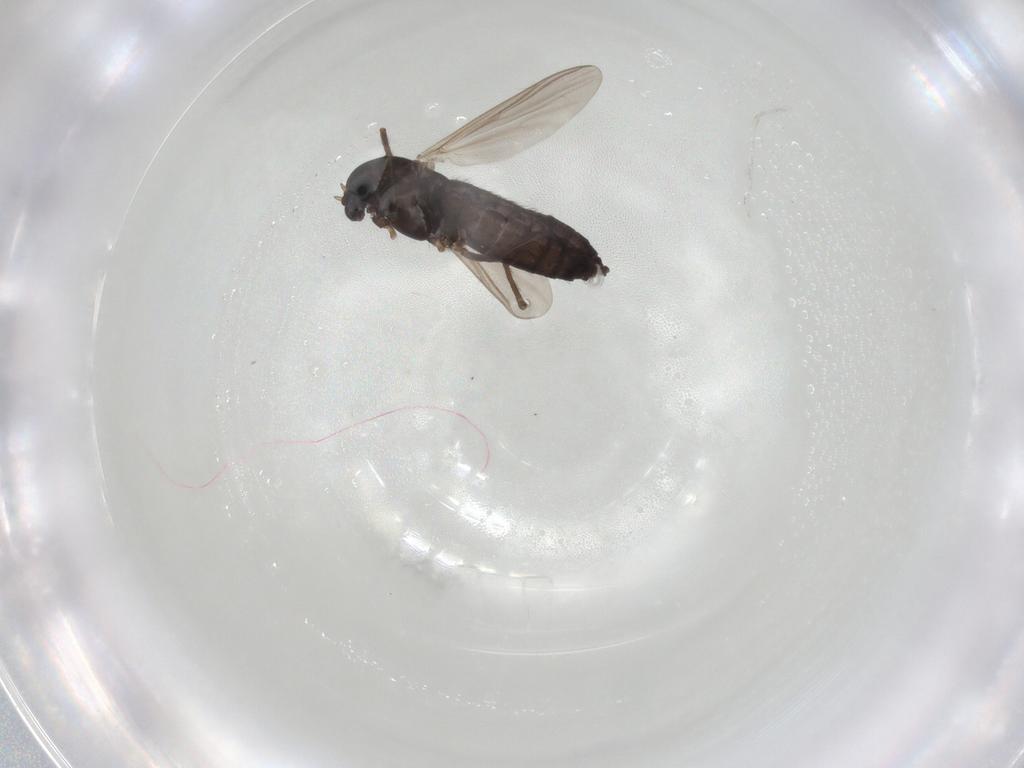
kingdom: Animalia
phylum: Arthropoda
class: Insecta
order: Diptera
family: Chironomidae
